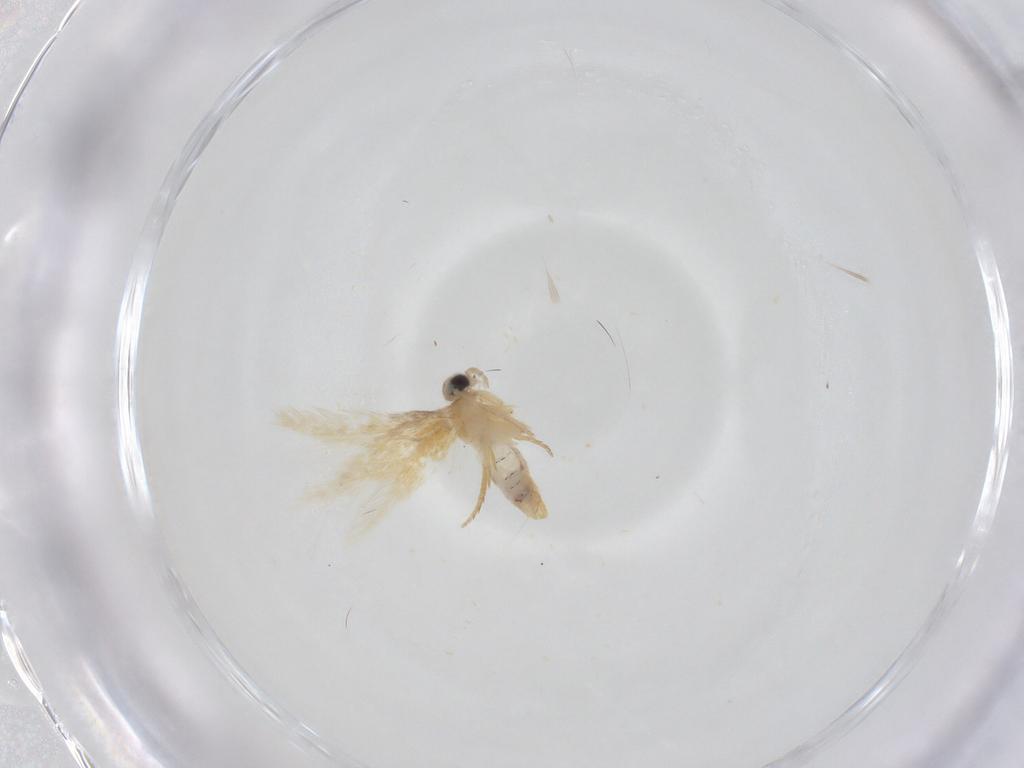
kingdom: Animalia
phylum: Arthropoda
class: Insecta
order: Lepidoptera
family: Nepticulidae
